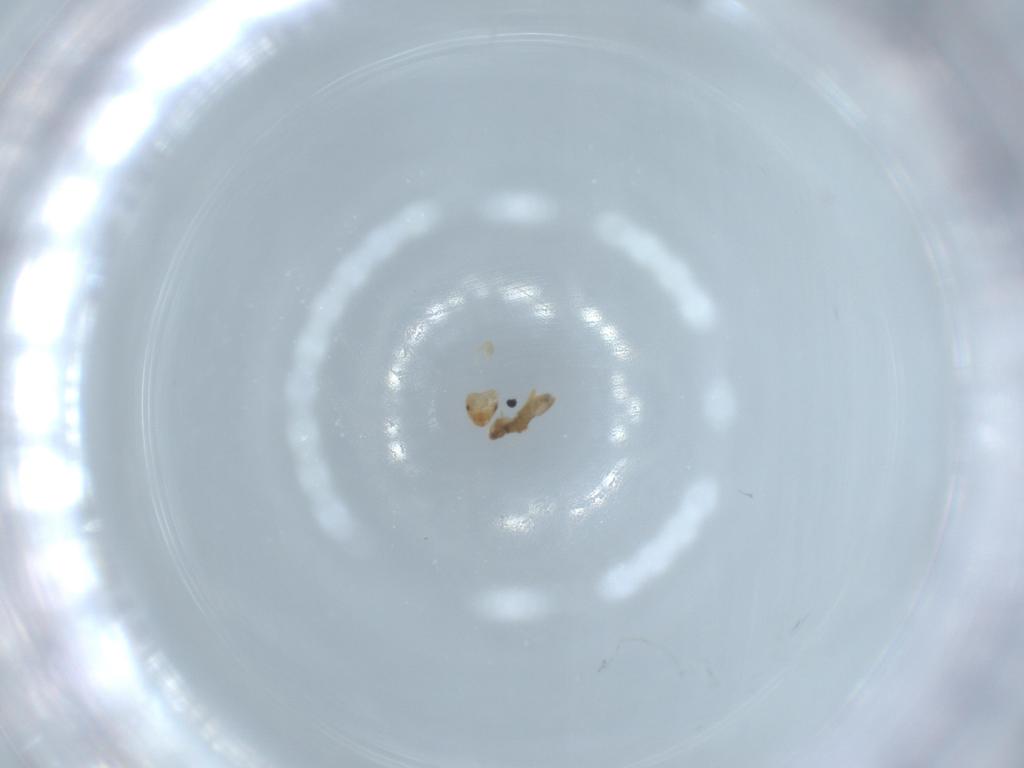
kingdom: Animalia
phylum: Arthropoda
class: Insecta
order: Psocodea
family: Liposcelididae
